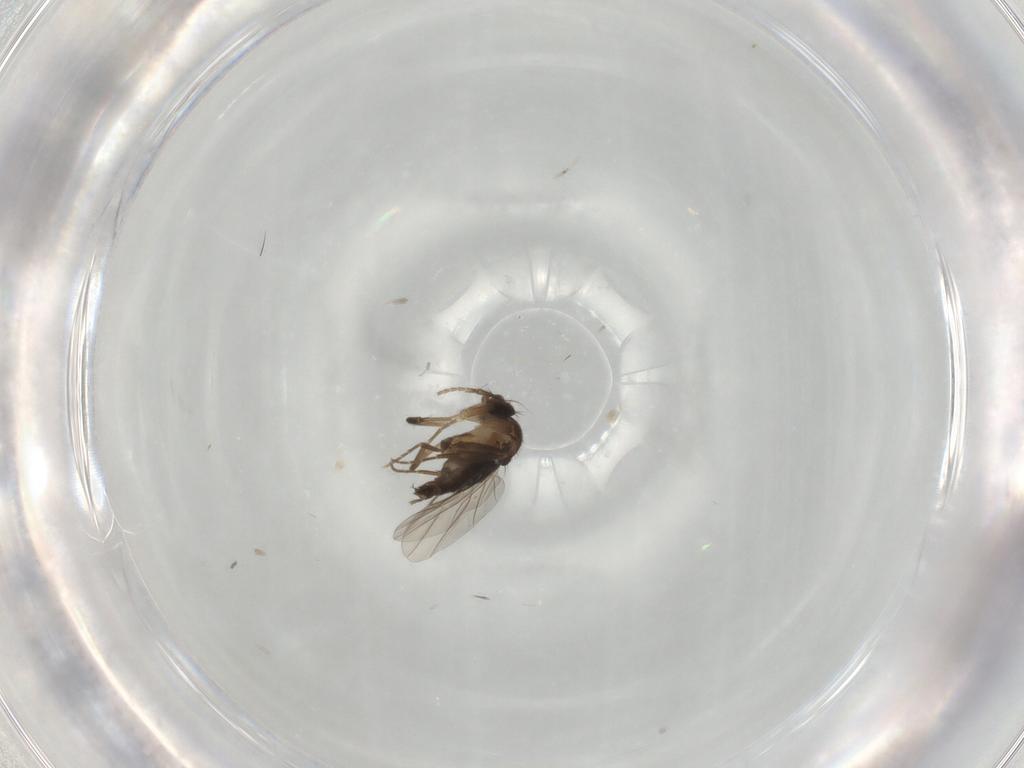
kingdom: Animalia
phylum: Arthropoda
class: Insecta
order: Diptera
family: Phoridae
